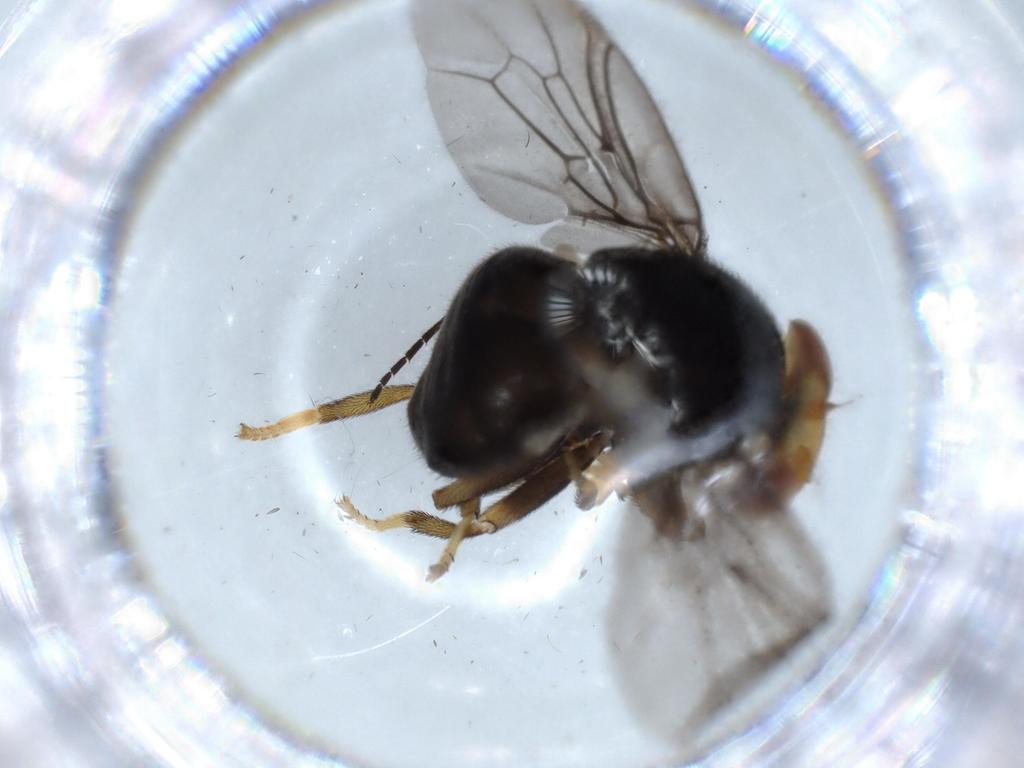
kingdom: Animalia
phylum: Arthropoda
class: Insecta
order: Diptera
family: Ulidiidae
